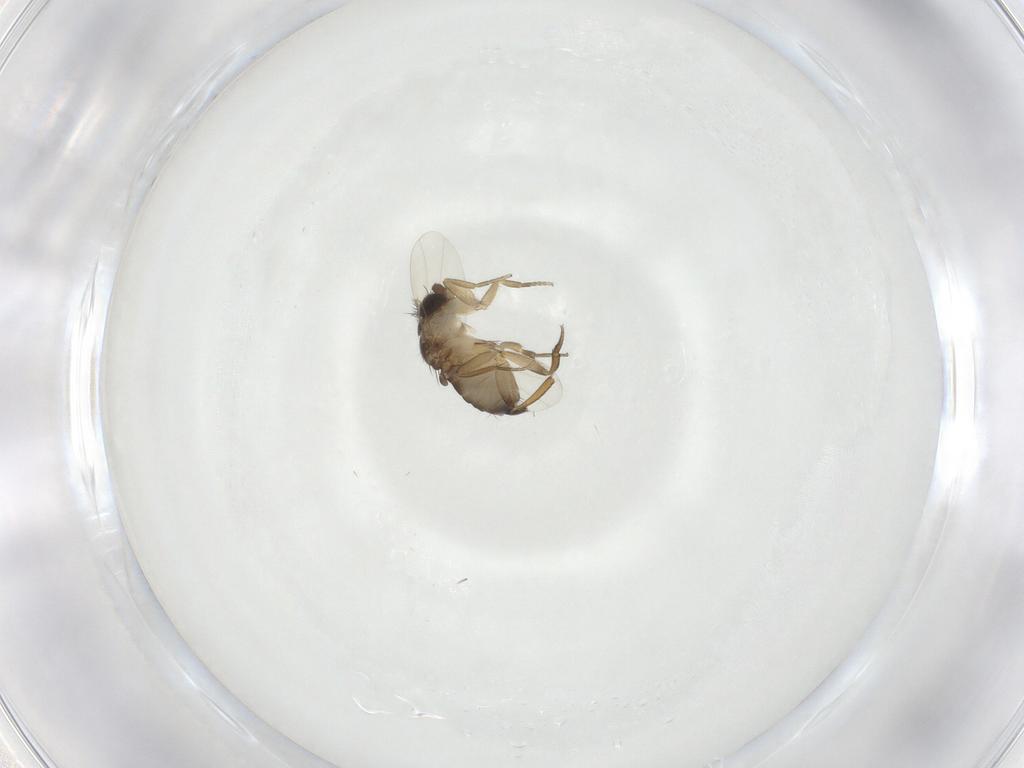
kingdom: Animalia
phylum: Arthropoda
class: Insecta
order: Diptera
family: Phoridae
